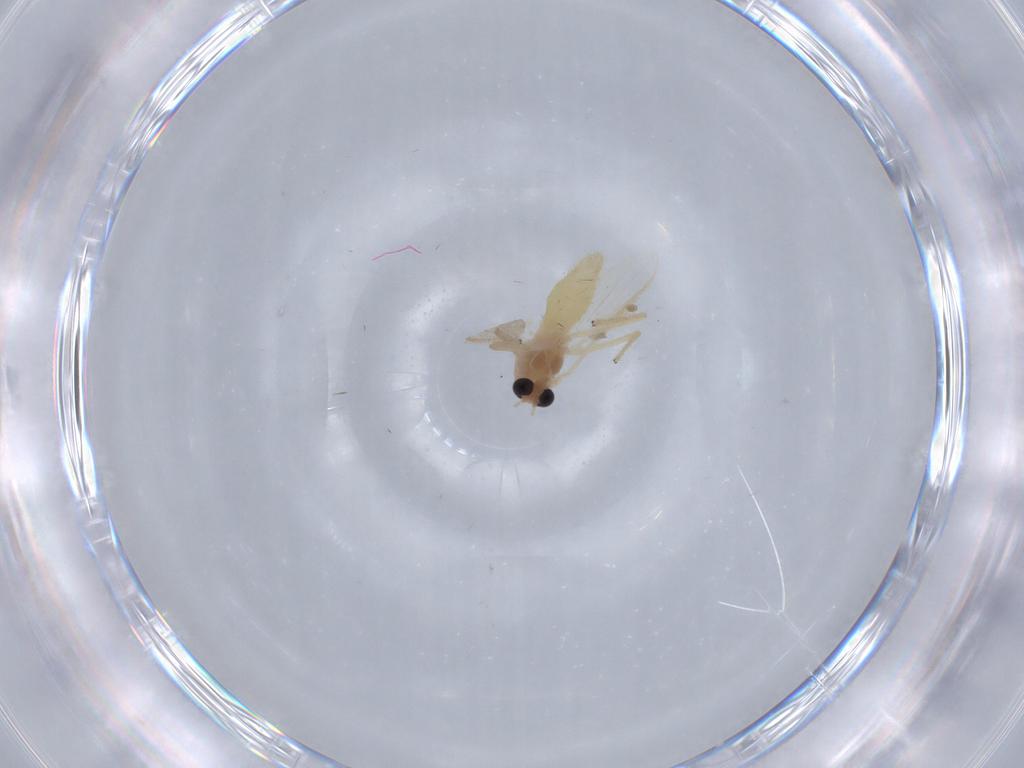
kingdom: Animalia
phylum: Arthropoda
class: Insecta
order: Diptera
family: Chironomidae
